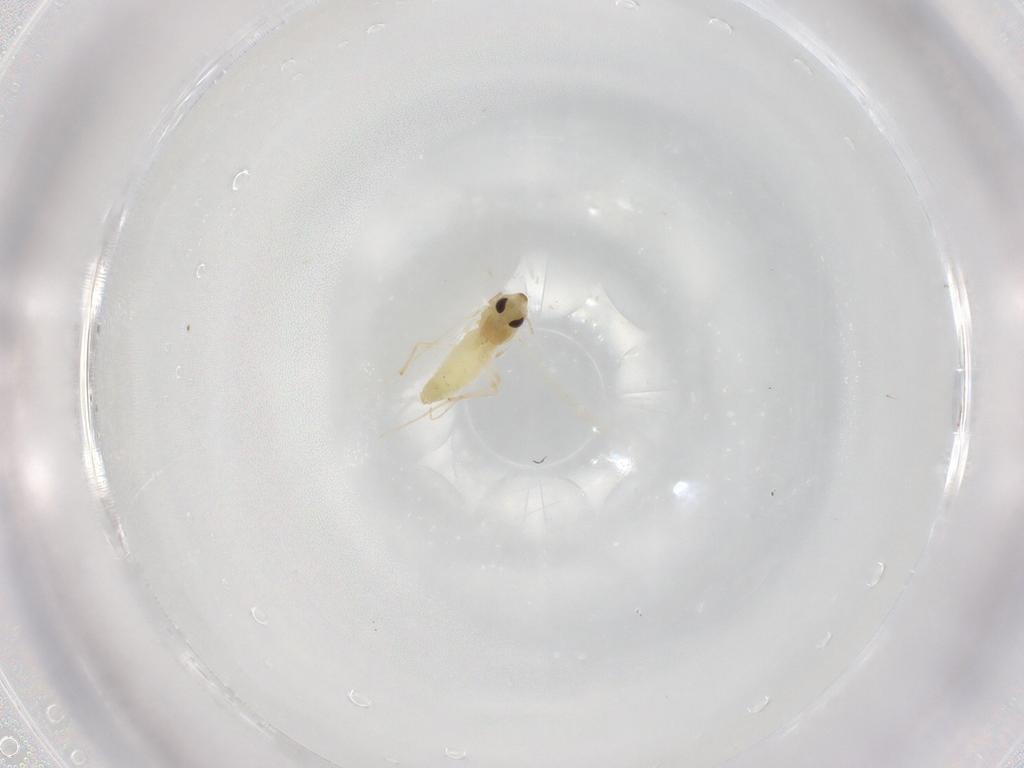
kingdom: Animalia
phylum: Arthropoda
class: Insecta
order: Diptera
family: Chironomidae
